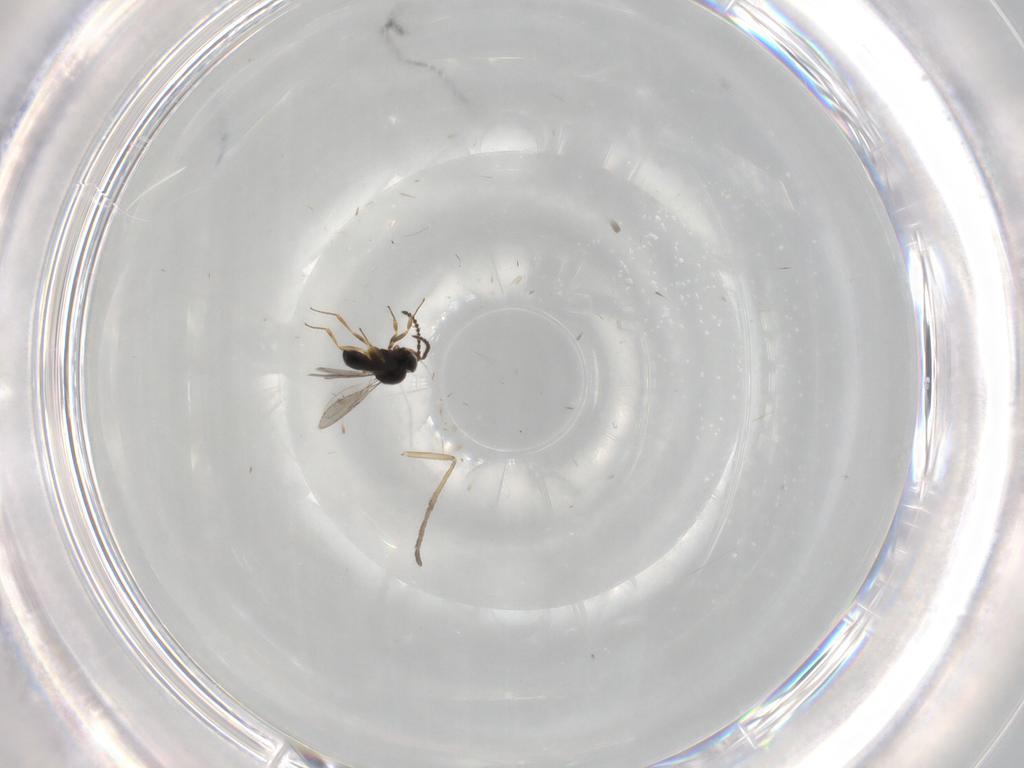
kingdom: Animalia
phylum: Arthropoda
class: Insecta
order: Hymenoptera
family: Scelionidae
